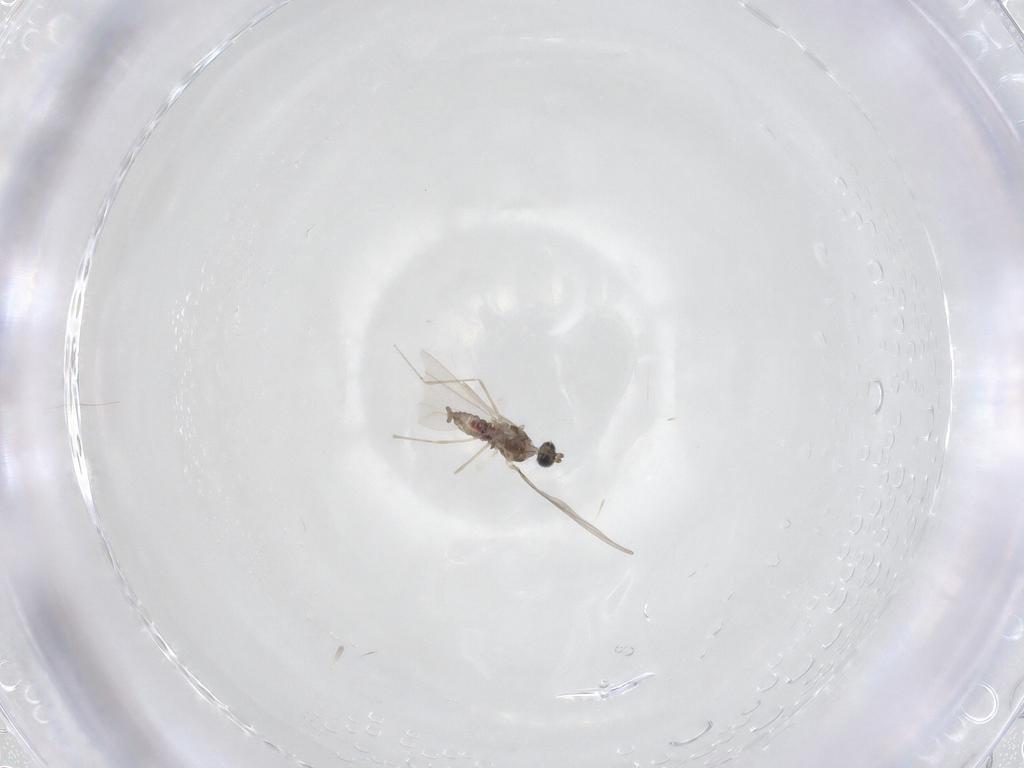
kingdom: Animalia
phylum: Arthropoda
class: Insecta
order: Diptera
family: Cecidomyiidae
